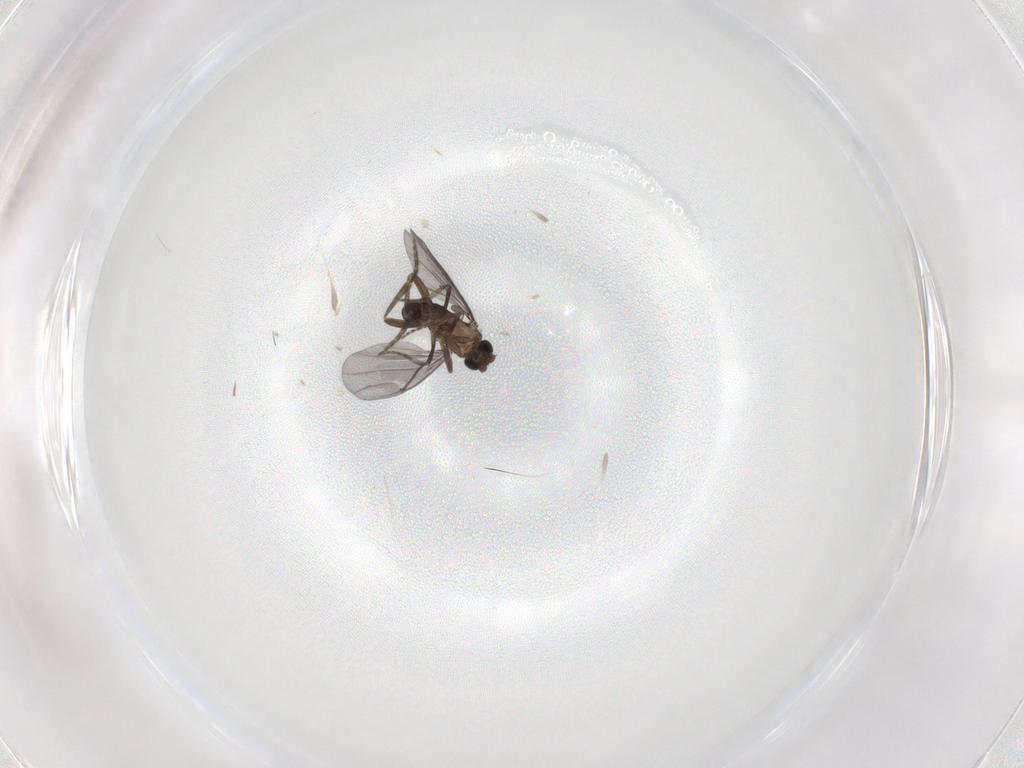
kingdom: Animalia
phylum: Arthropoda
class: Insecta
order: Diptera
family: Phoridae
